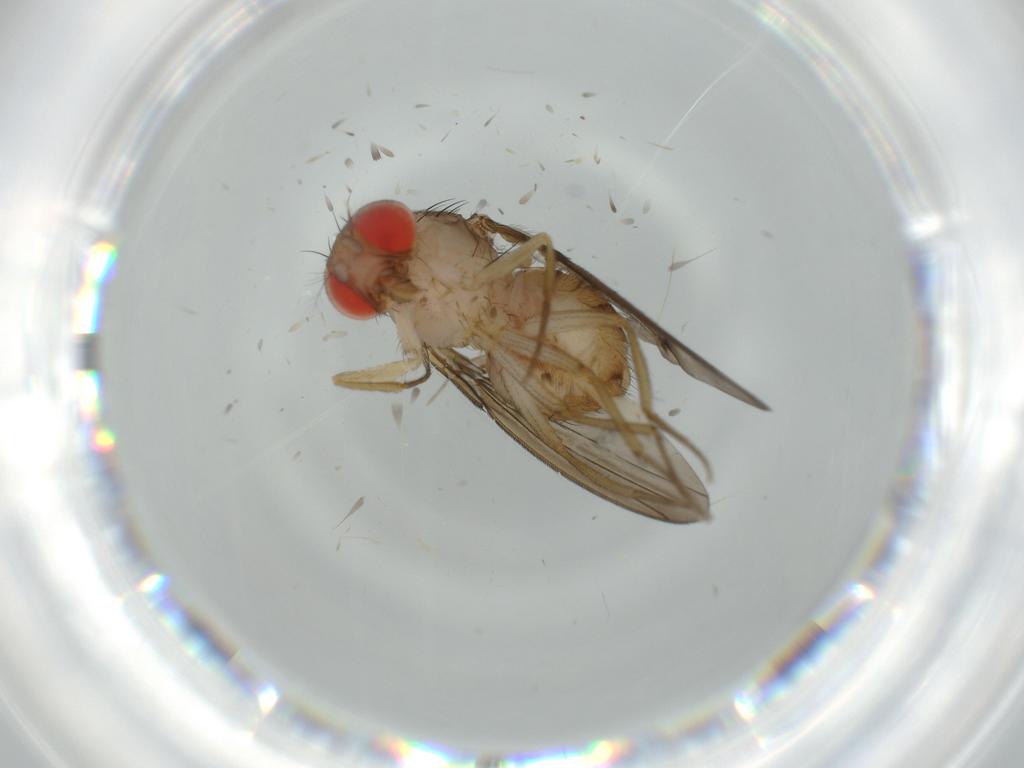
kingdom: Animalia
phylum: Arthropoda
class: Insecta
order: Diptera
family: Drosophilidae
